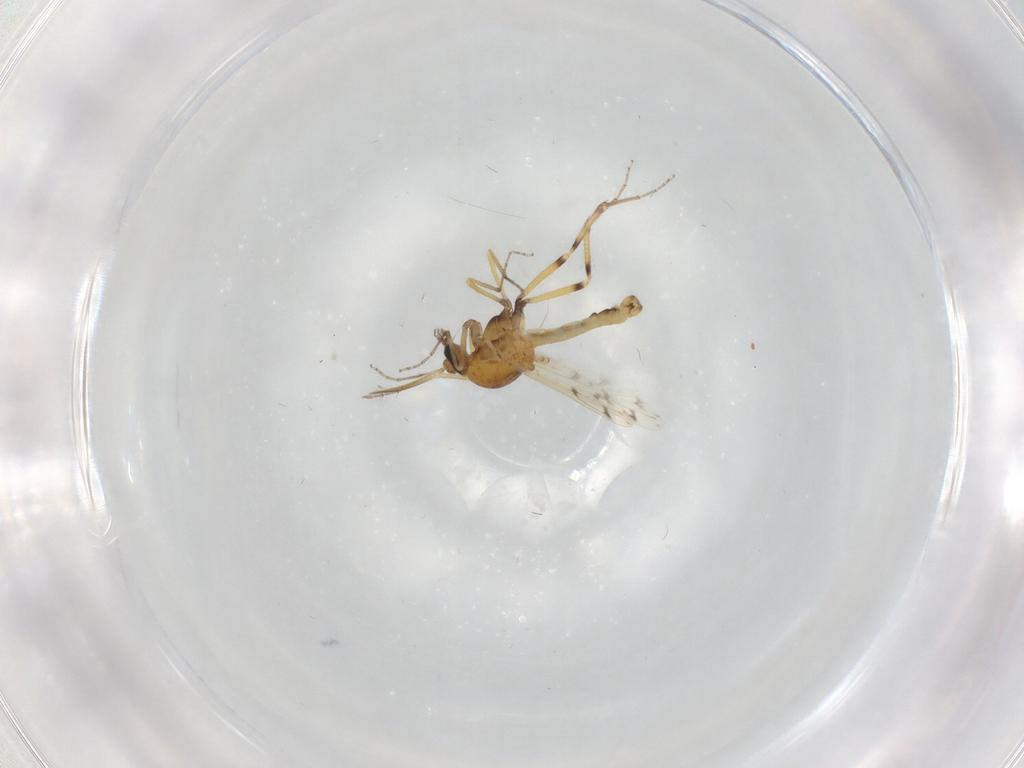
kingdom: Animalia
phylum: Arthropoda
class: Insecta
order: Diptera
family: Ceratopogonidae
